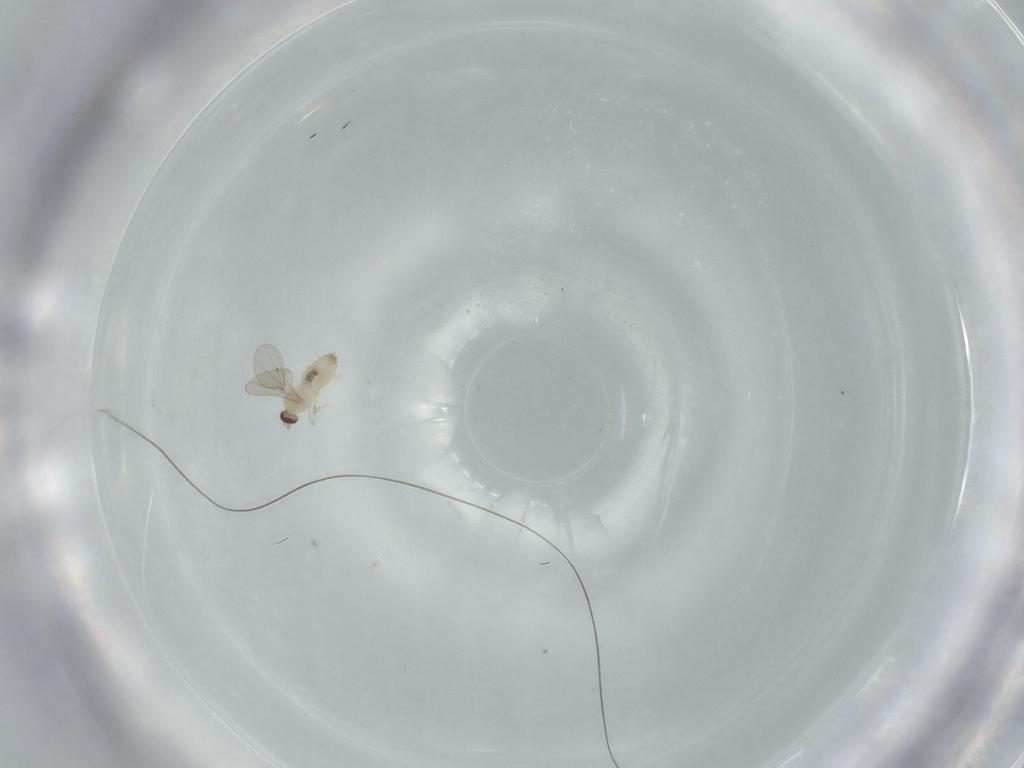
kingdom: Animalia
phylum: Arthropoda
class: Insecta
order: Diptera
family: Cecidomyiidae
